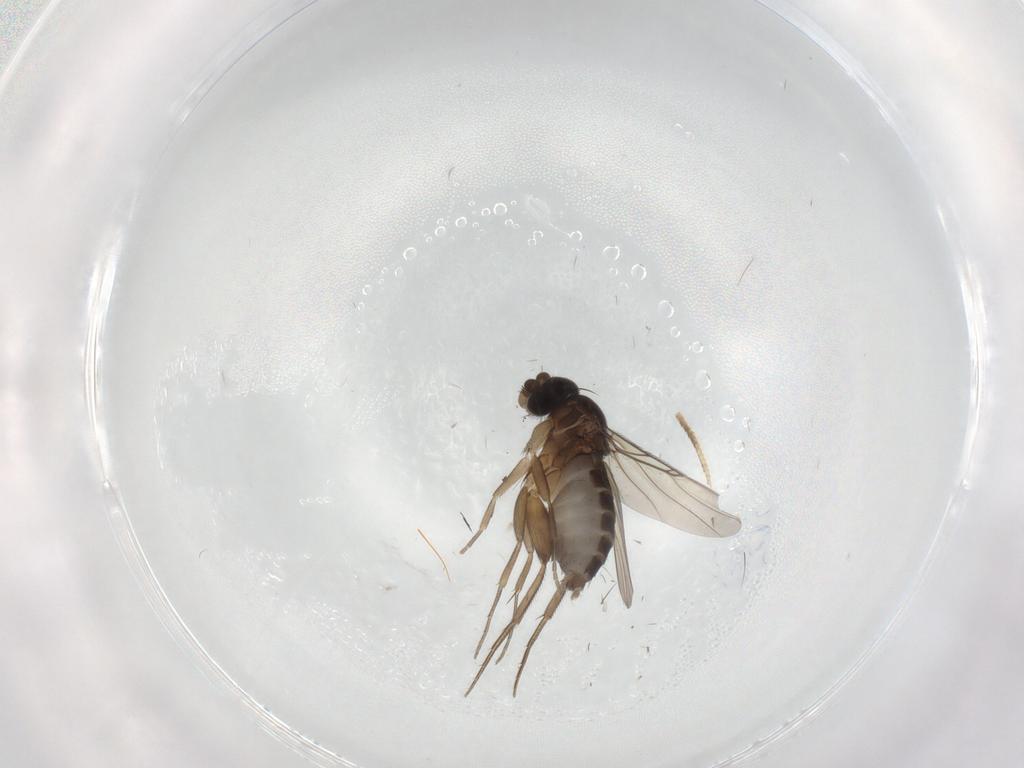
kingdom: Animalia
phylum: Arthropoda
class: Insecta
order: Diptera
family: Phoridae
